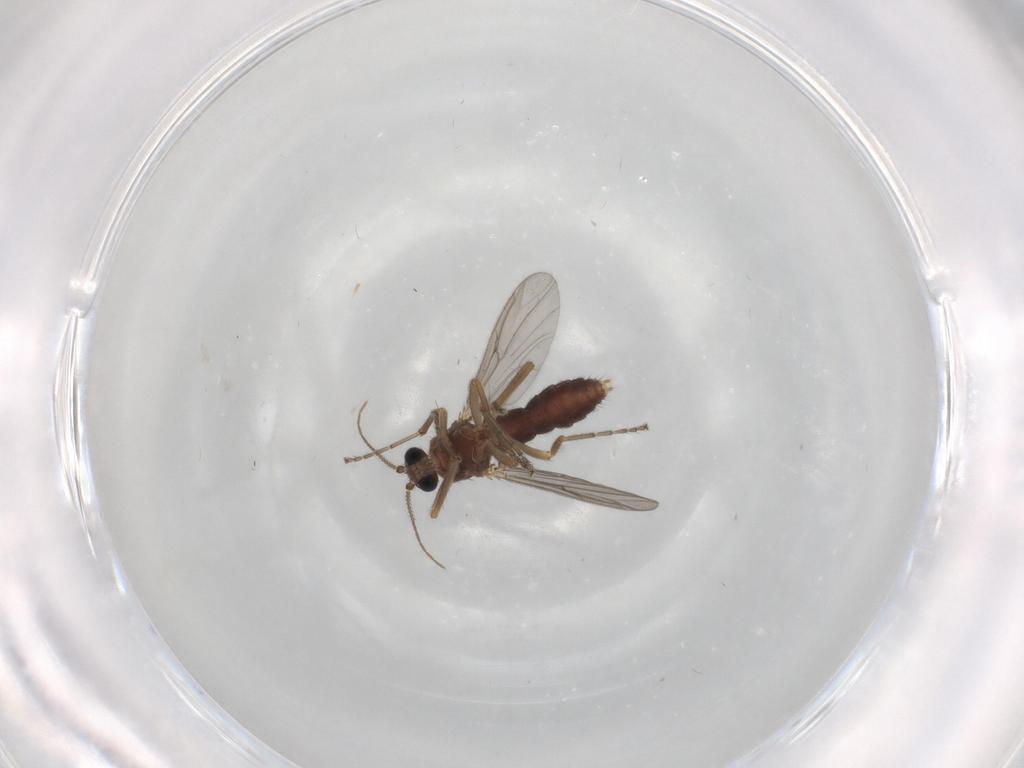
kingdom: Animalia
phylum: Arthropoda
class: Insecta
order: Diptera
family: Ceratopogonidae
